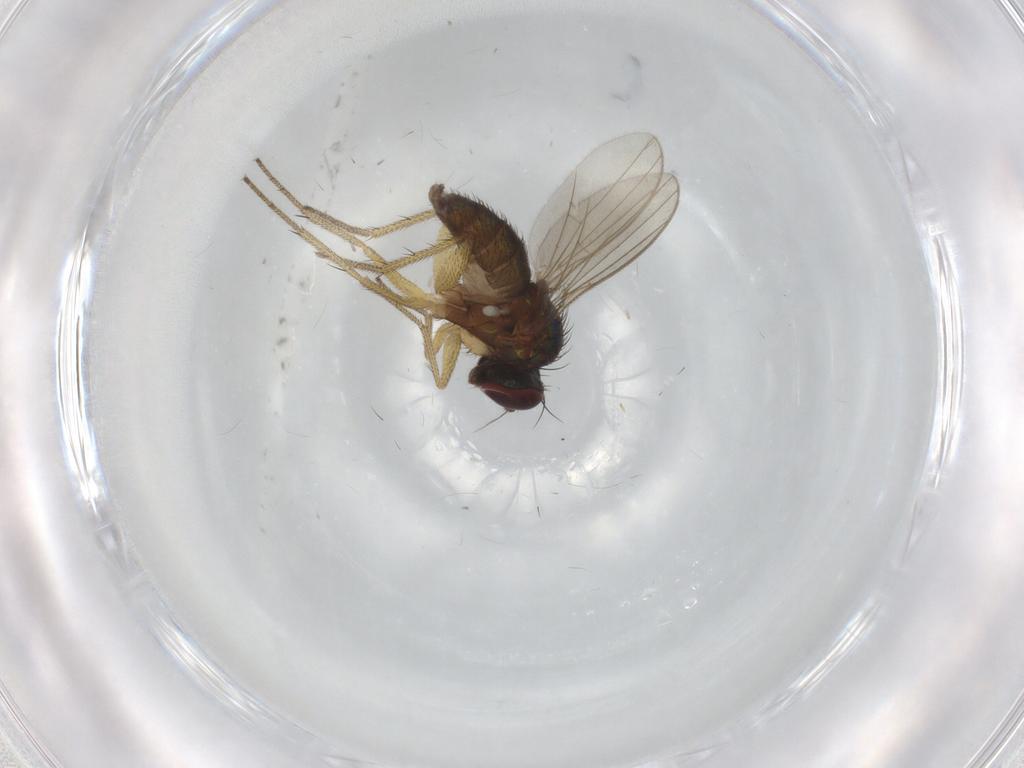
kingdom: Animalia
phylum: Arthropoda
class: Insecta
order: Diptera
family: Dolichopodidae
